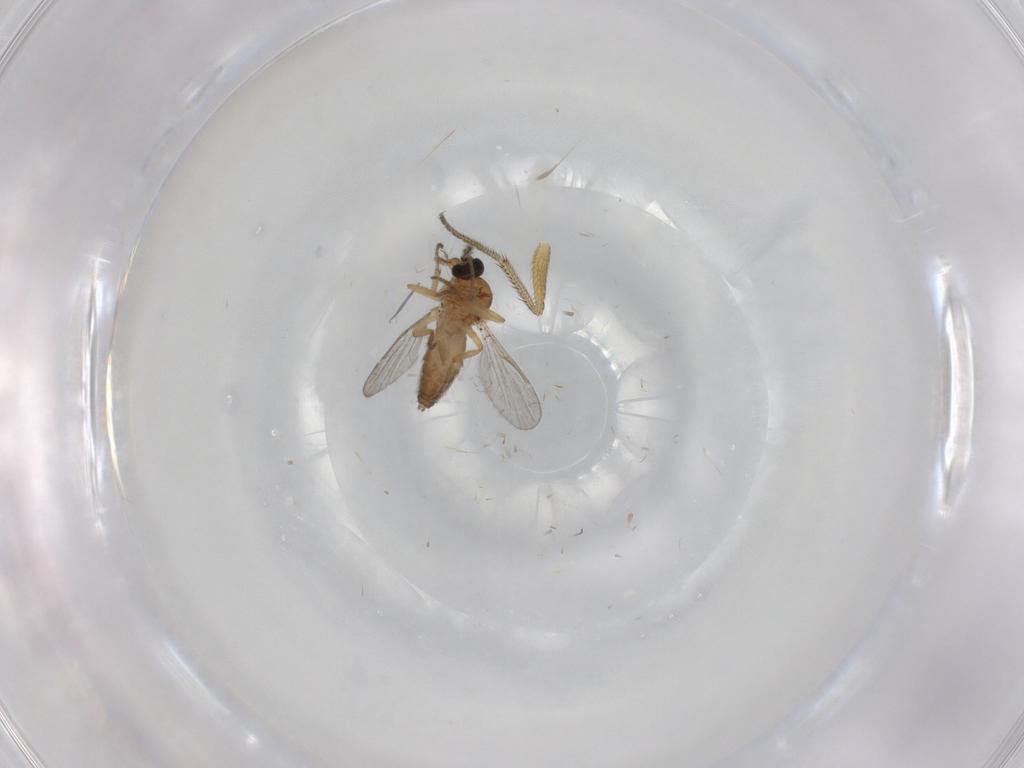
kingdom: Animalia
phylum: Arthropoda
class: Insecta
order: Diptera
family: Dolichopodidae
